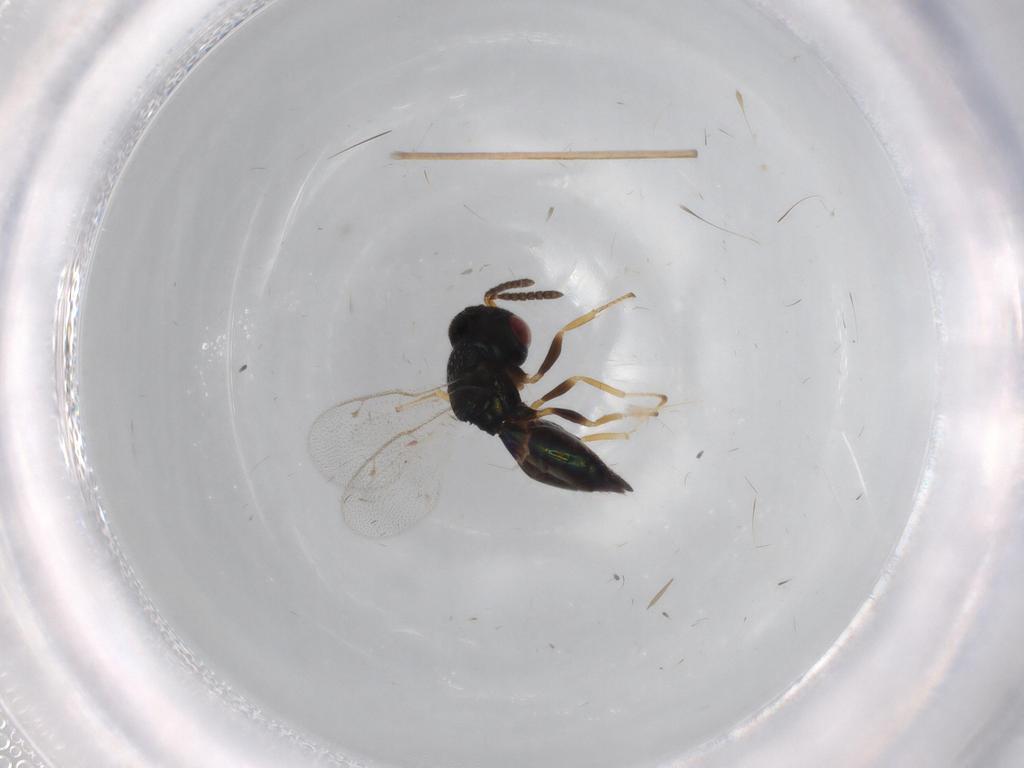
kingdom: Animalia
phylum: Arthropoda
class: Insecta
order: Hymenoptera
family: Pteromalidae
